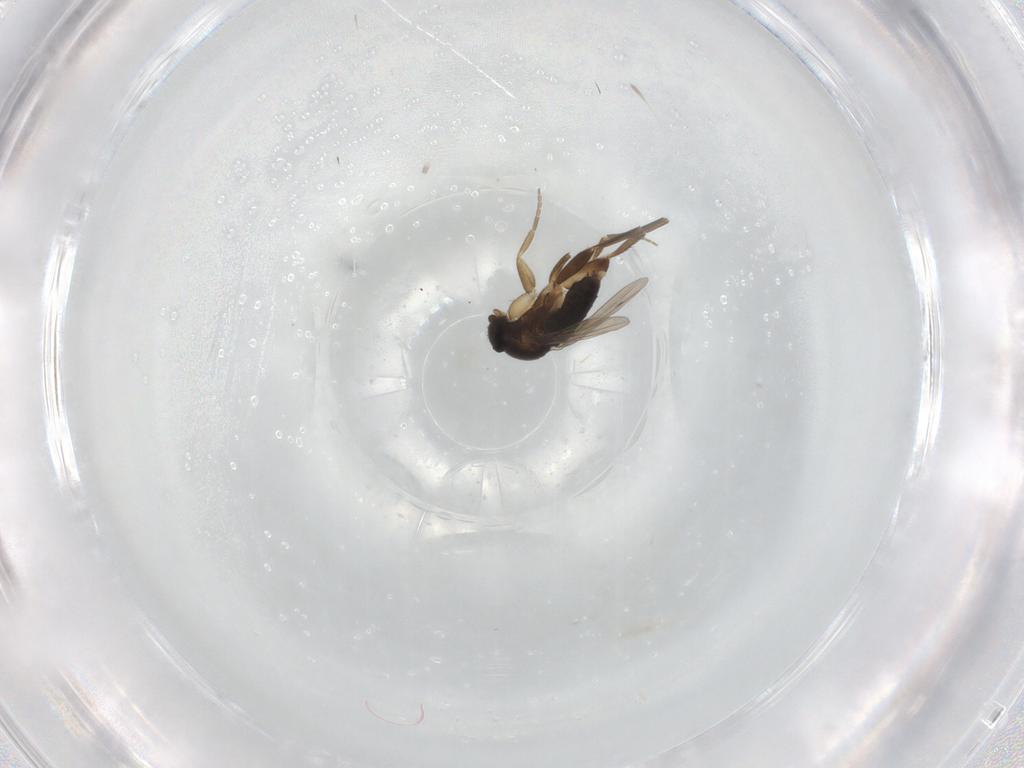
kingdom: Animalia
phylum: Arthropoda
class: Insecta
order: Diptera
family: Phoridae
